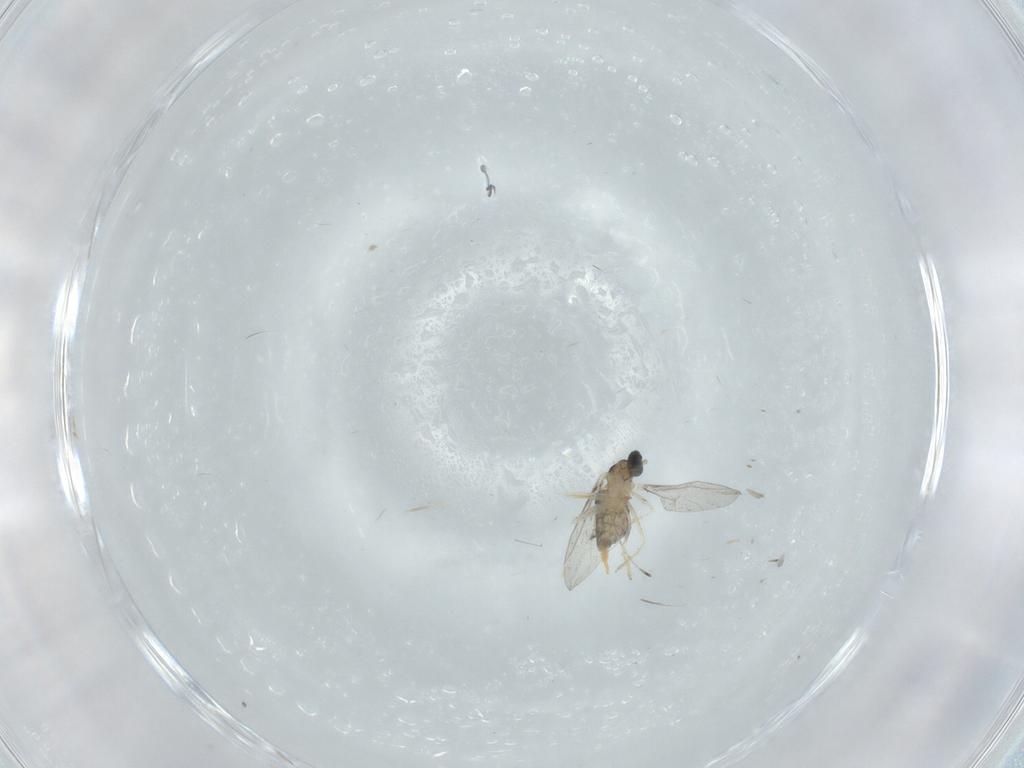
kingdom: Animalia
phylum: Arthropoda
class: Insecta
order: Diptera
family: Cecidomyiidae
